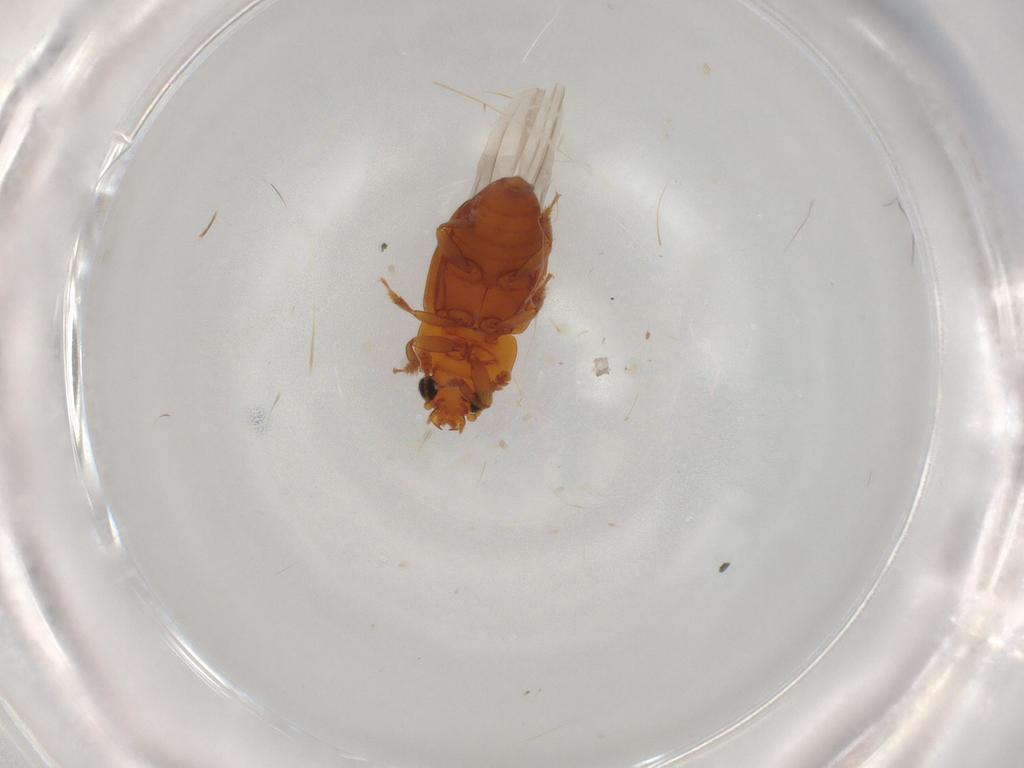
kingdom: Animalia
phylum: Arthropoda
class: Insecta
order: Coleoptera
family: Nitidulidae
